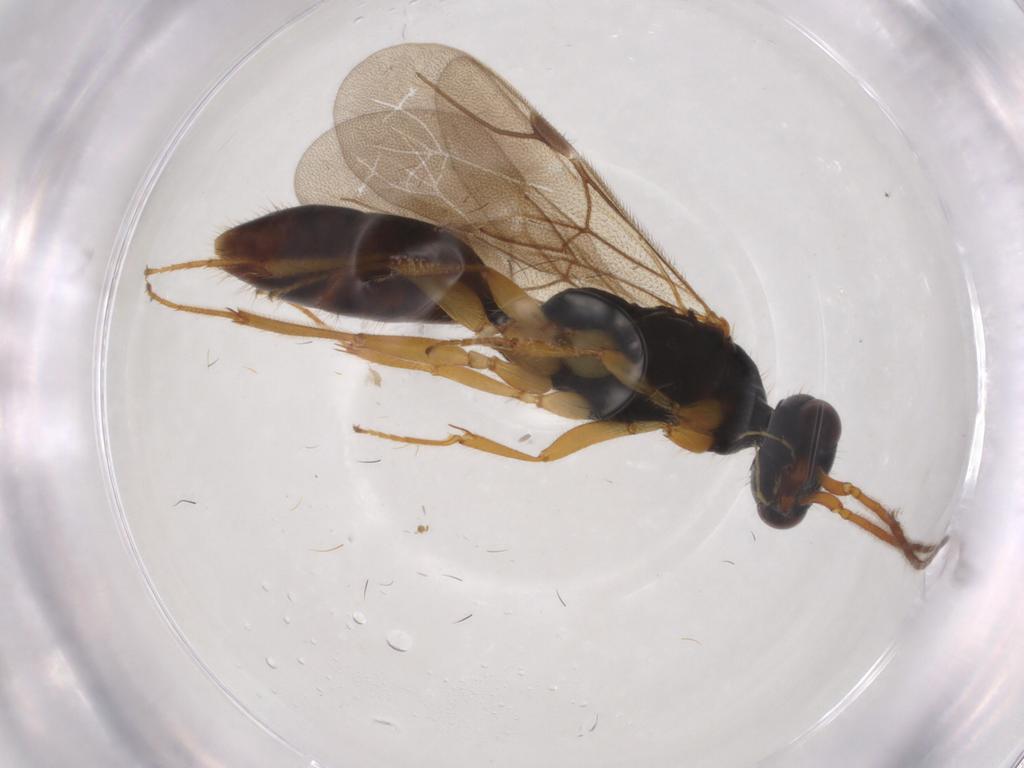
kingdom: Animalia
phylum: Arthropoda
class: Insecta
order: Hymenoptera
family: Bethylidae
